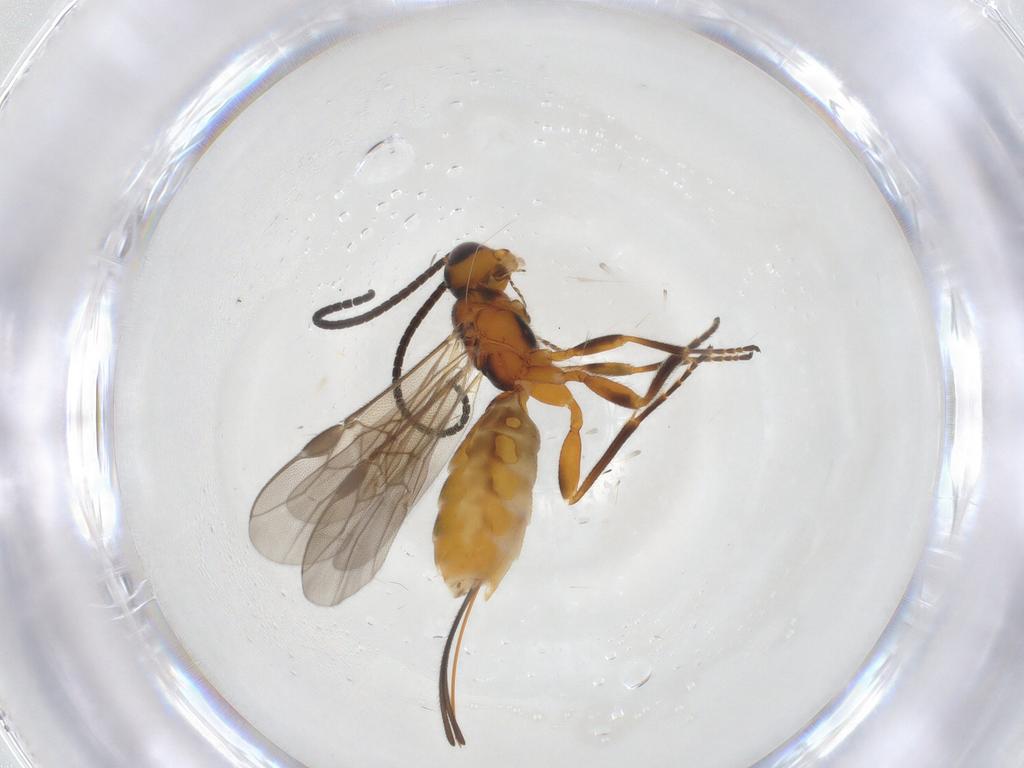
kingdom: Animalia
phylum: Arthropoda
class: Insecta
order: Hymenoptera
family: Braconidae
